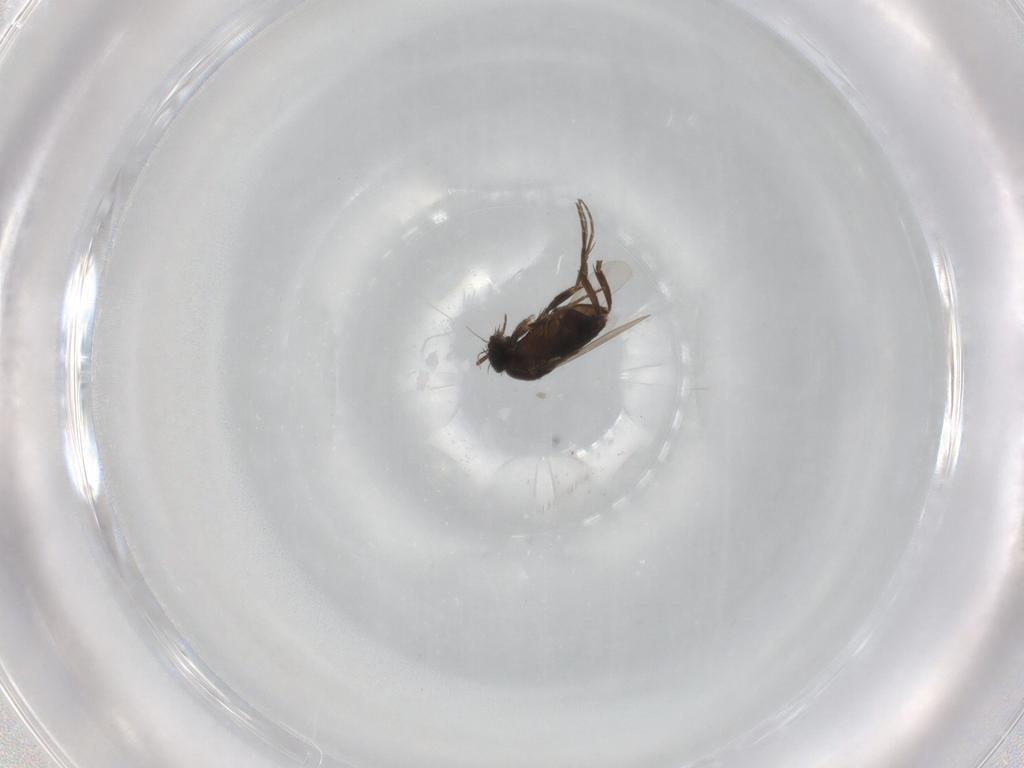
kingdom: Animalia
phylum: Arthropoda
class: Insecta
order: Diptera
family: Phoridae
